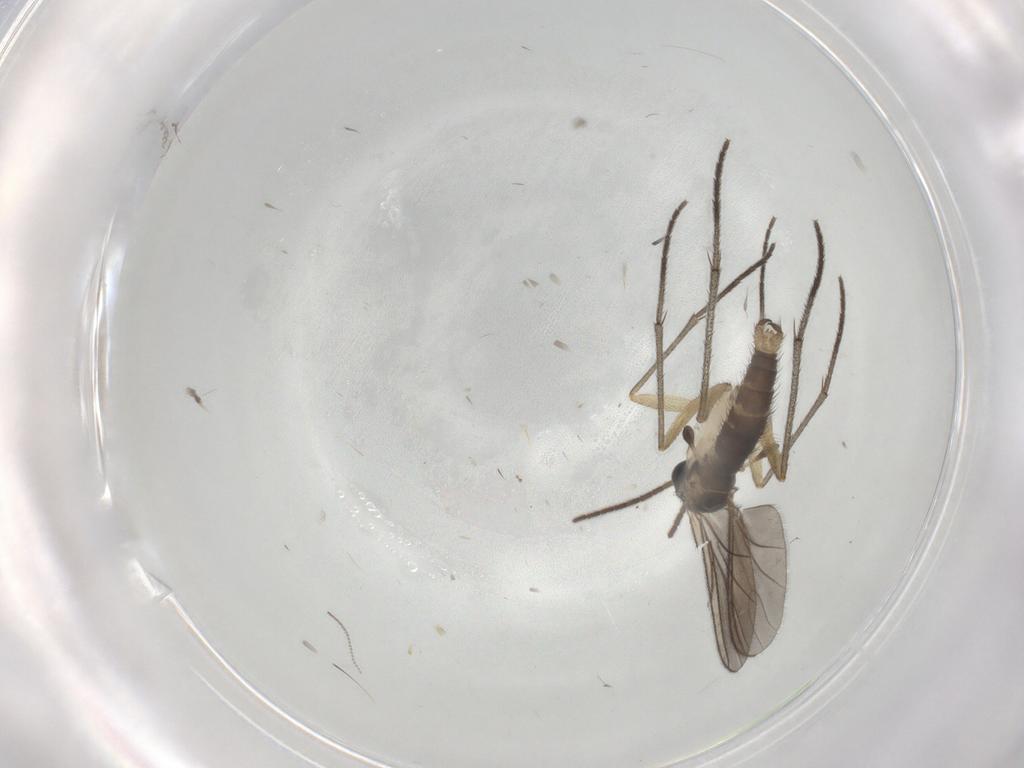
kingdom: Animalia
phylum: Arthropoda
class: Insecta
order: Diptera
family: Cecidomyiidae
